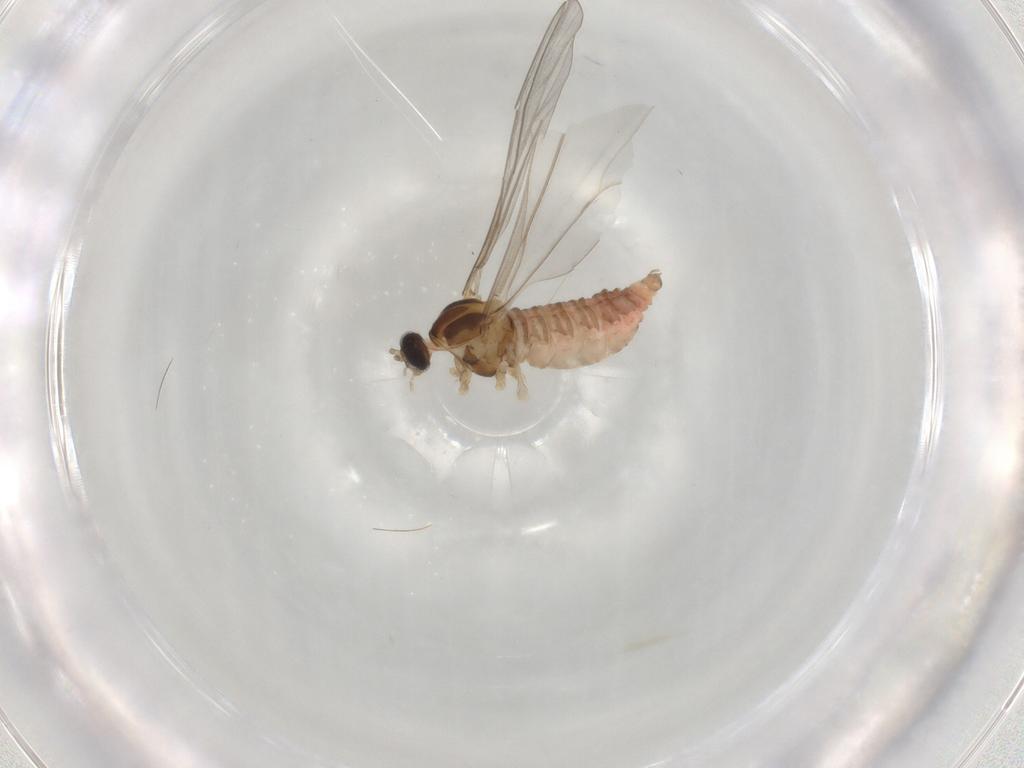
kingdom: Animalia
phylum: Arthropoda
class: Insecta
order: Diptera
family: Cecidomyiidae
